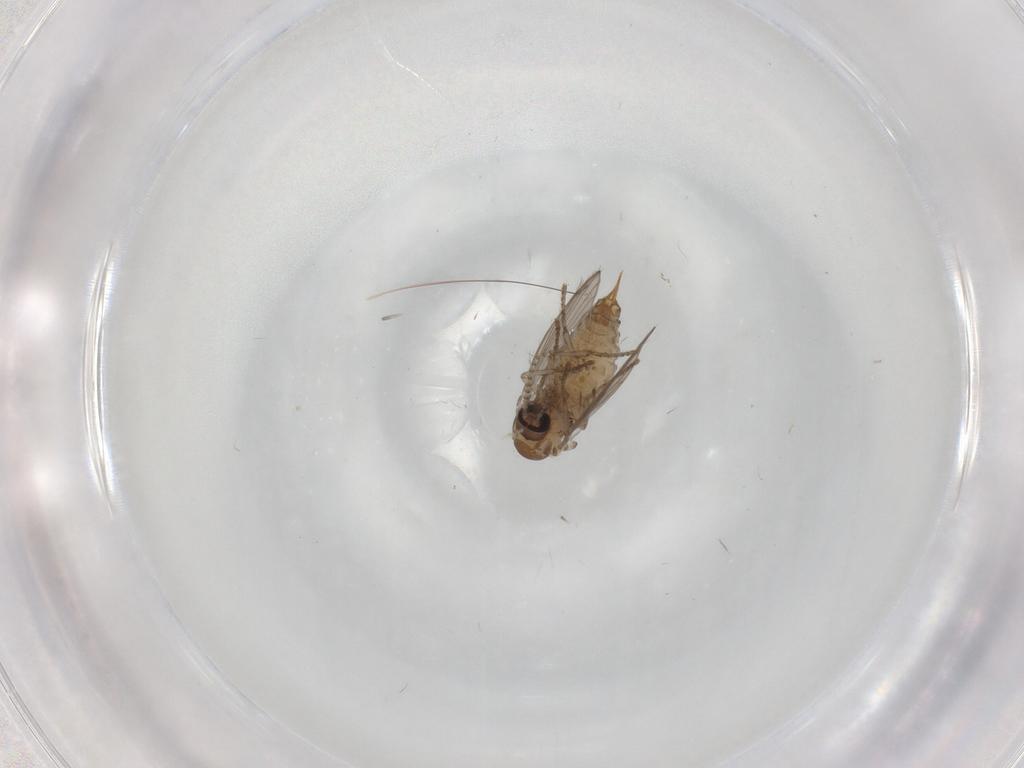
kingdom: Animalia
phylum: Arthropoda
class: Insecta
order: Diptera
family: Psychodidae
